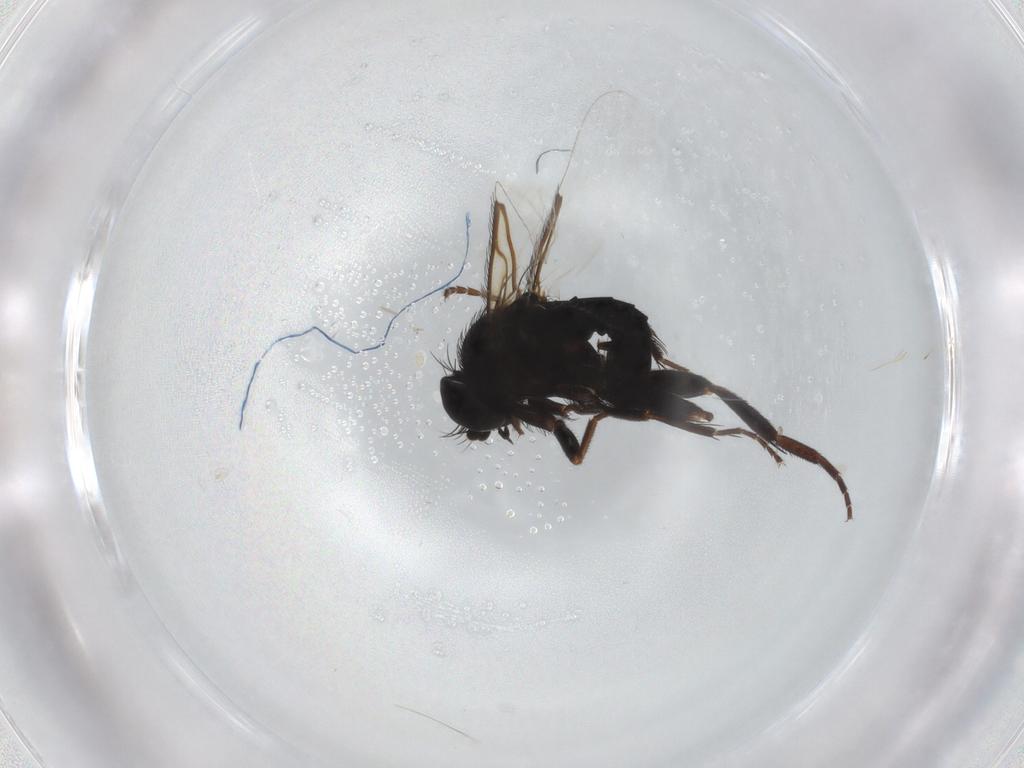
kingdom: Animalia
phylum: Arthropoda
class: Insecta
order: Diptera
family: Phoridae
